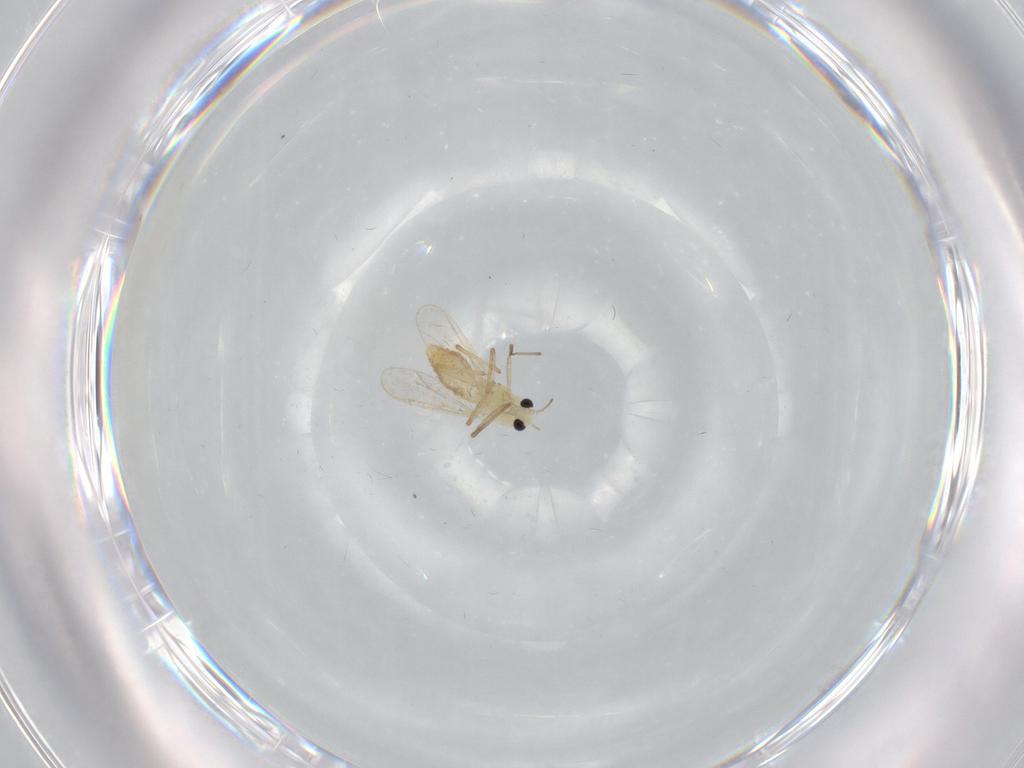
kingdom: Animalia
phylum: Arthropoda
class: Insecta
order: Diptera
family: Chironomidae
